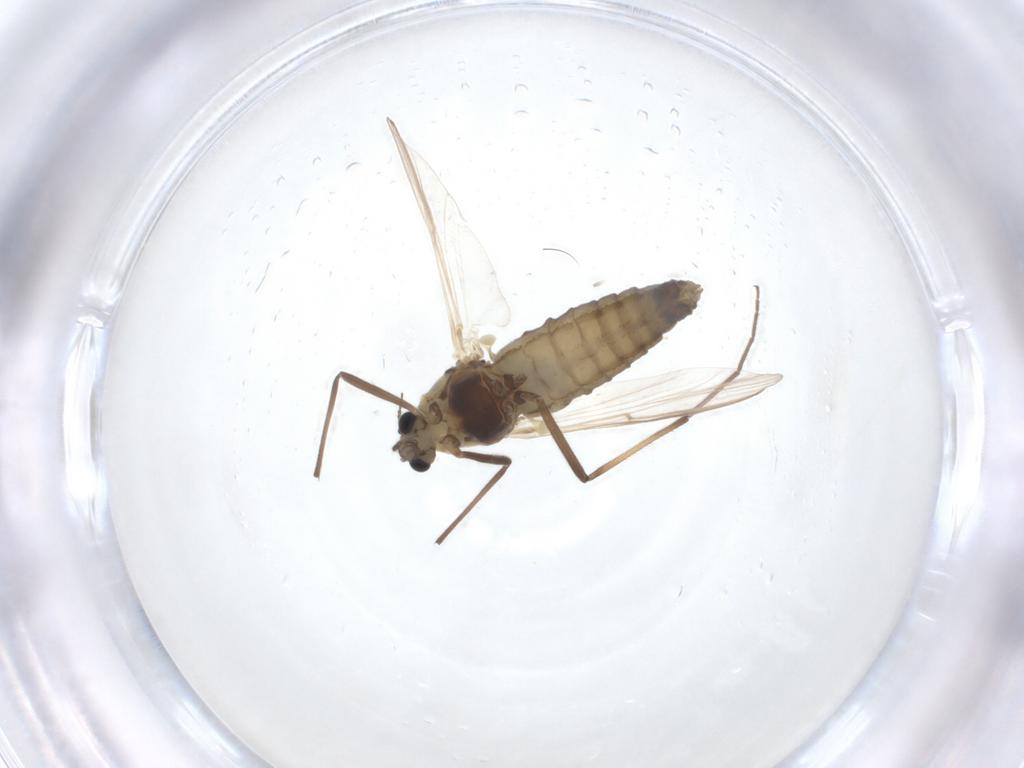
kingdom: Animalia
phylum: Arthropoda
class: Insecta
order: Diptera
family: Chironomidae
